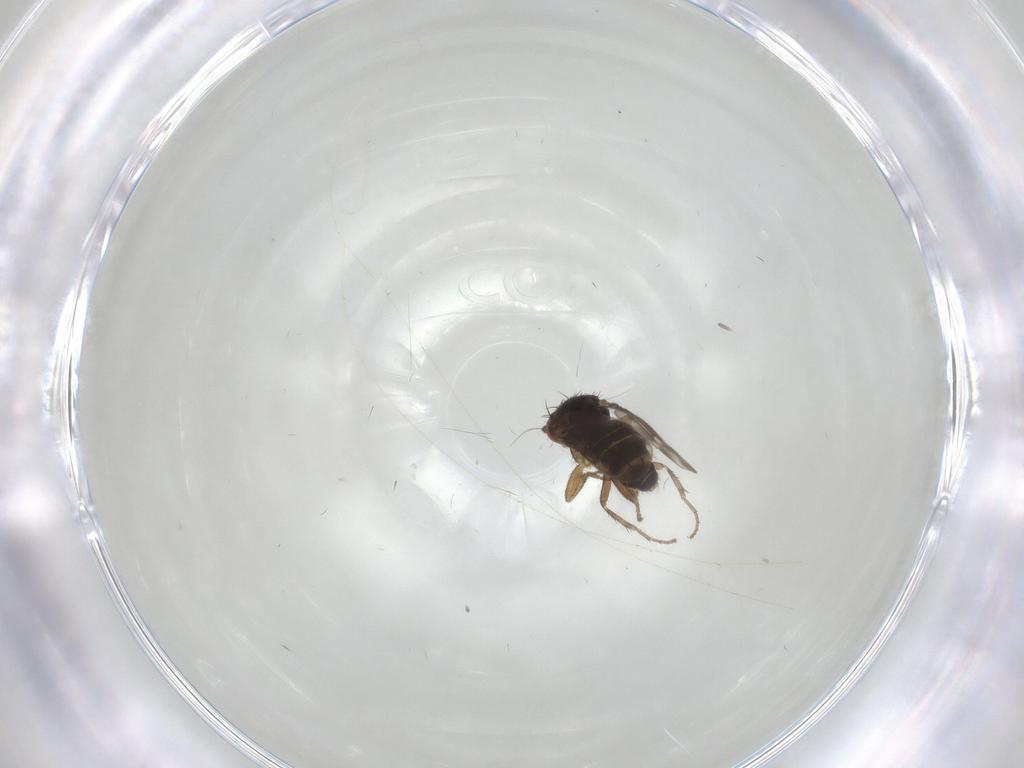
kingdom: Animalia
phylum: Arthropoda
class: Insecta
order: Diptera
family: Sphaeroceridae
